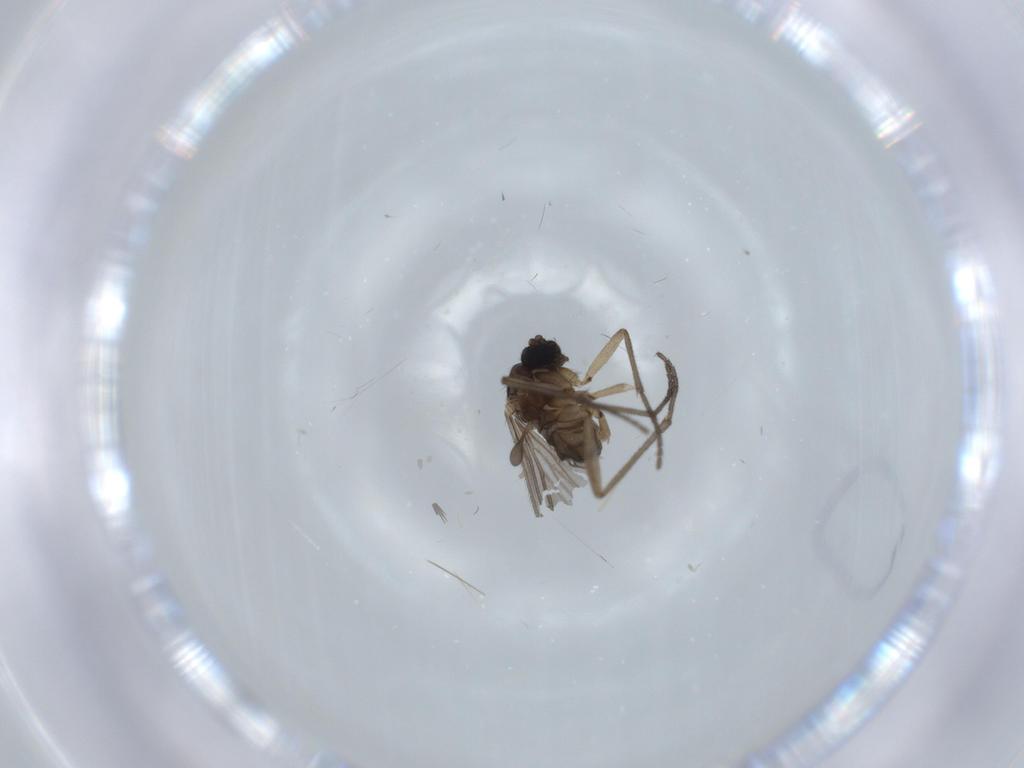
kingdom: Animalia
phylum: Arthropoda
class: Insecta
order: Diptera
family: Sciaridae
